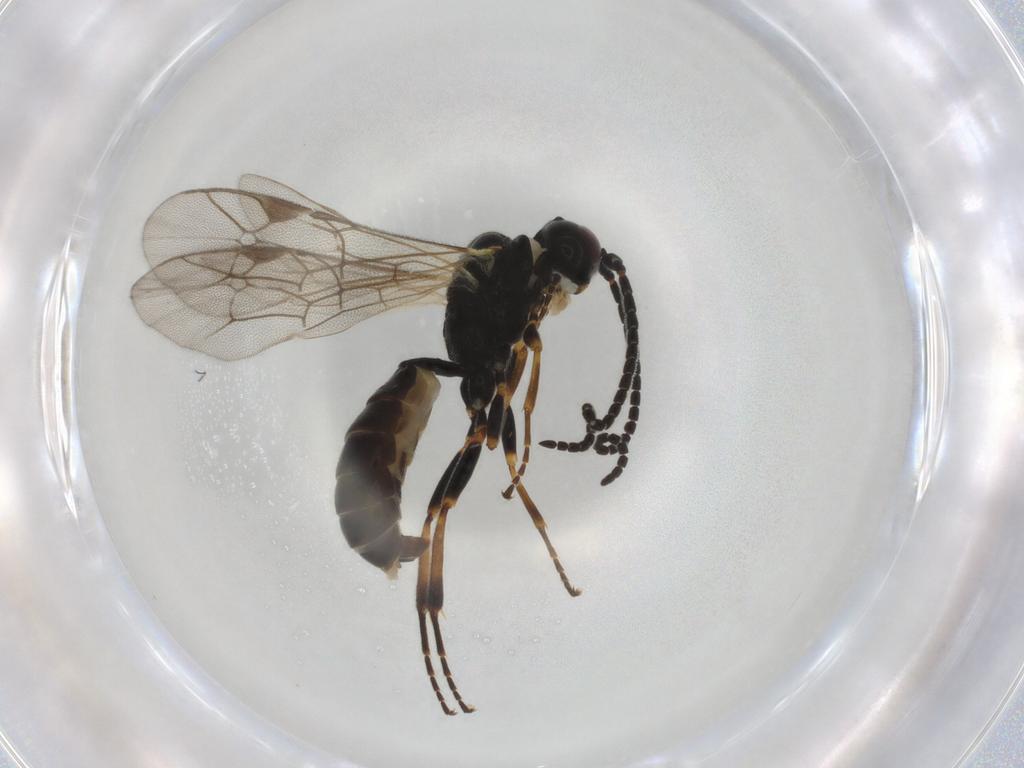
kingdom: Animalia
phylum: Arthropoda
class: Insecta
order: Hymenoptera
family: Ichneumonidae
